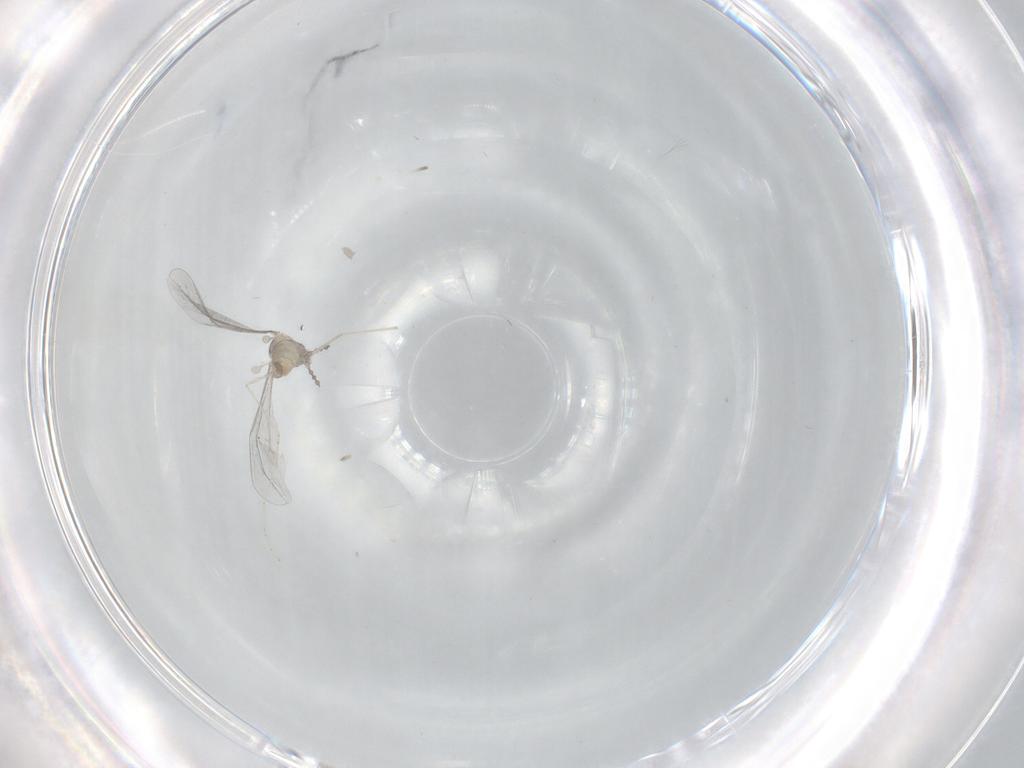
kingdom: Animalia
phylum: Arthropoda
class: Insecta
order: Diptera
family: Cecidomyiidae
